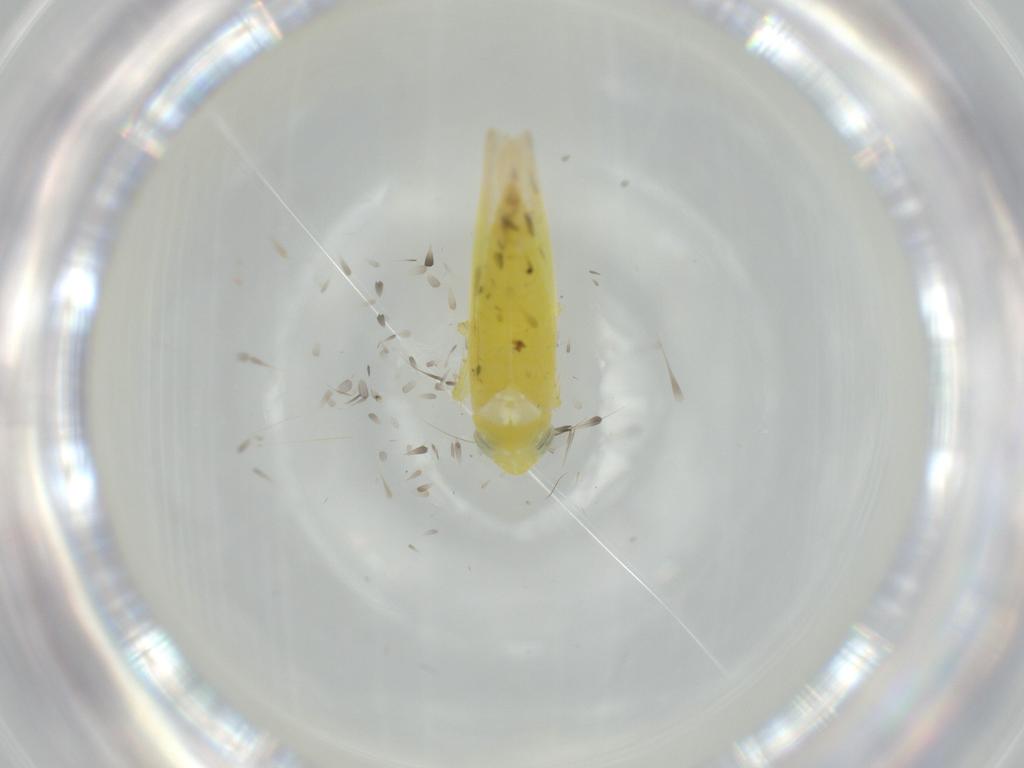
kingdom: Animalia
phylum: Arthropoda
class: Insecta
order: Hemiptera
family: Cicadellidae
